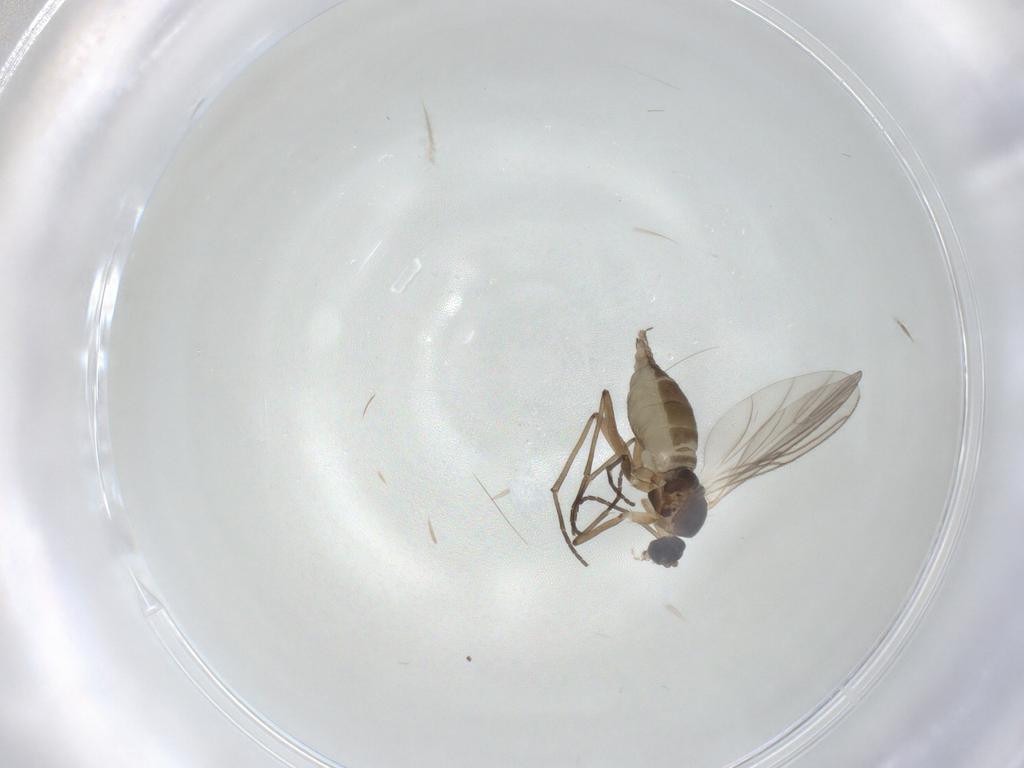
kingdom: Animalia
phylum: Arthropoda
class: Insecta
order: Diptera
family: Cecidomyiidae
